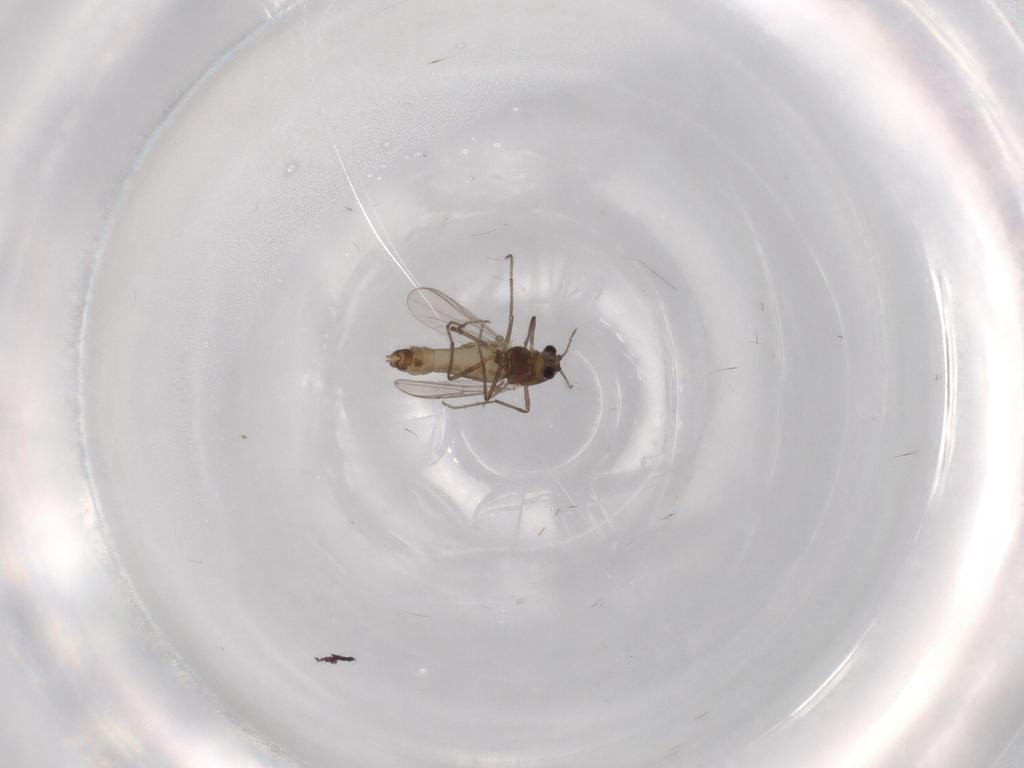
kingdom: Animalia
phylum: Arthropoda
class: Insecta
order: Diptera
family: Chironomidae
